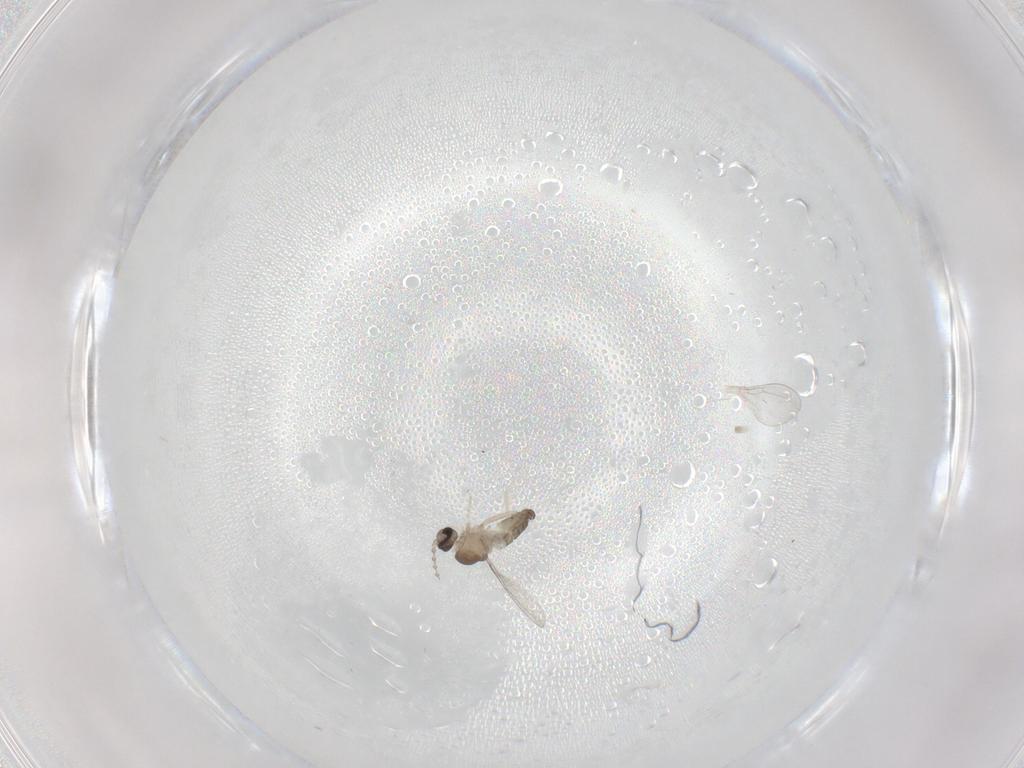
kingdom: Animalia
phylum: Arthropoda
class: Insecta
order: Diptera
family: Cecidomyiidae
